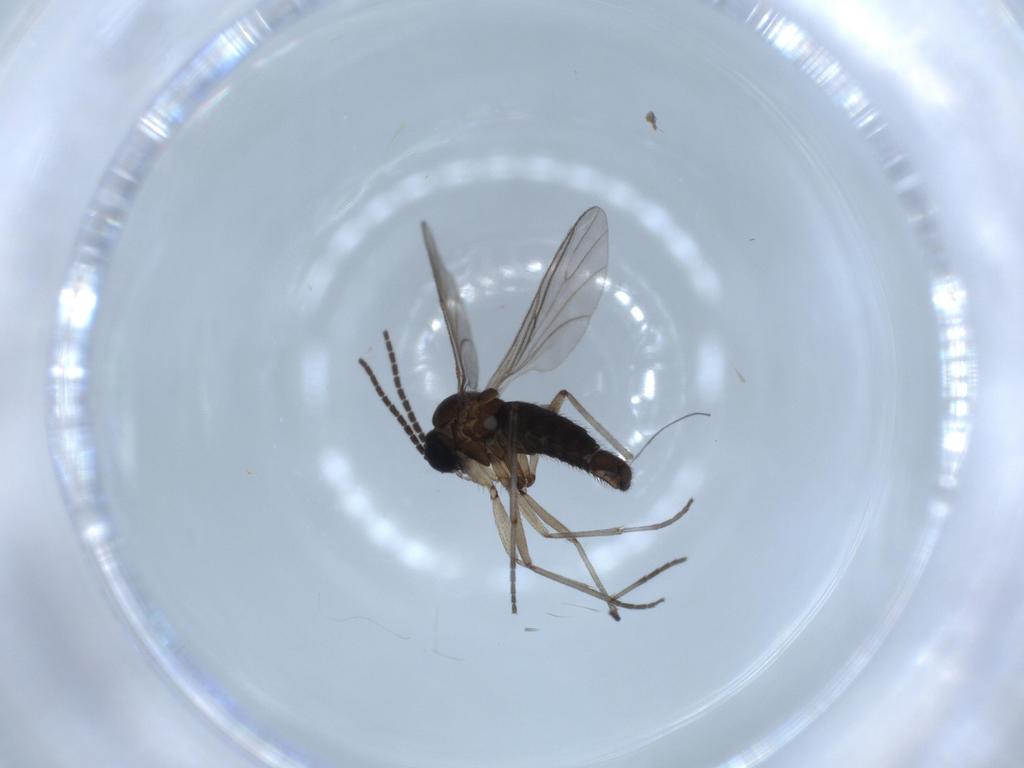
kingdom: Animalia
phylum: Arthropoda
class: Insecta
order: Diptera
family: Sciaridae
